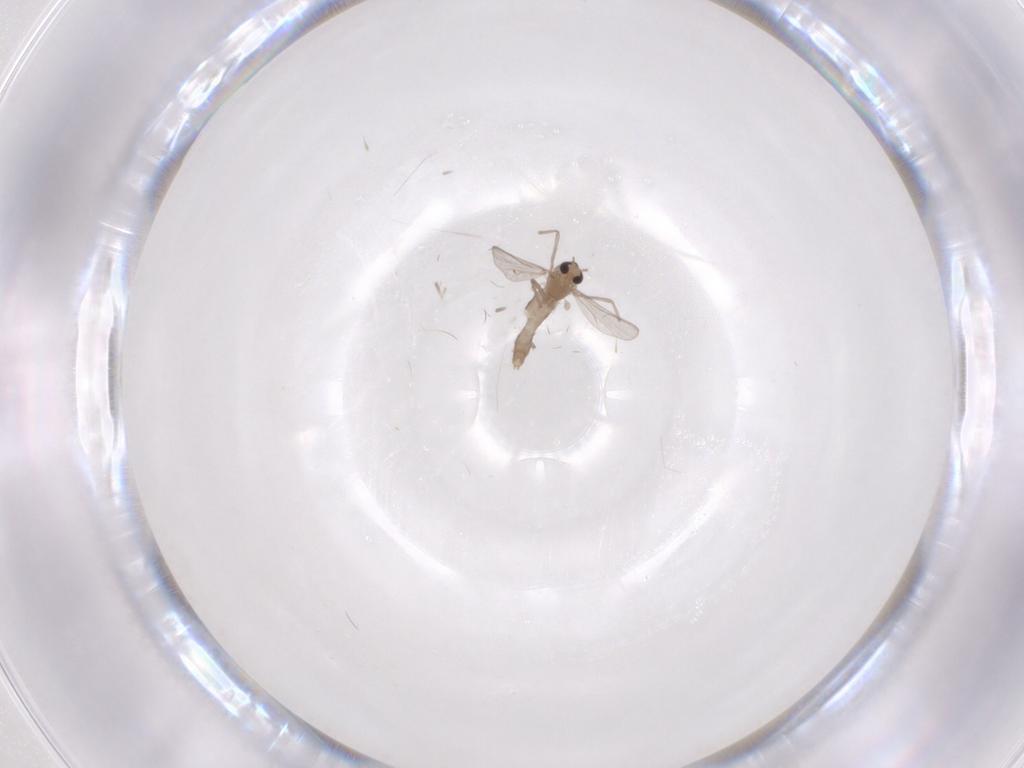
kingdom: Animalia
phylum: Arthropoda
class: Insecta
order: Diptera
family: Chironomidae
